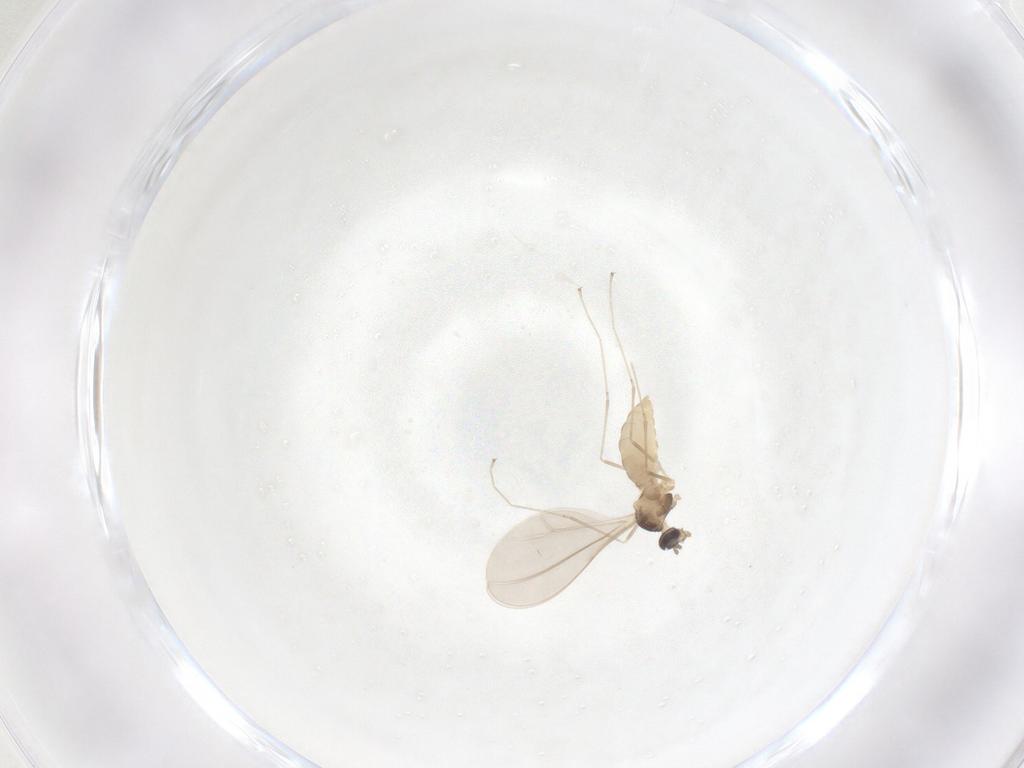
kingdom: Animalia
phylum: Arthropoda
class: Insecta
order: Diptera
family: Cecidomyiidae
